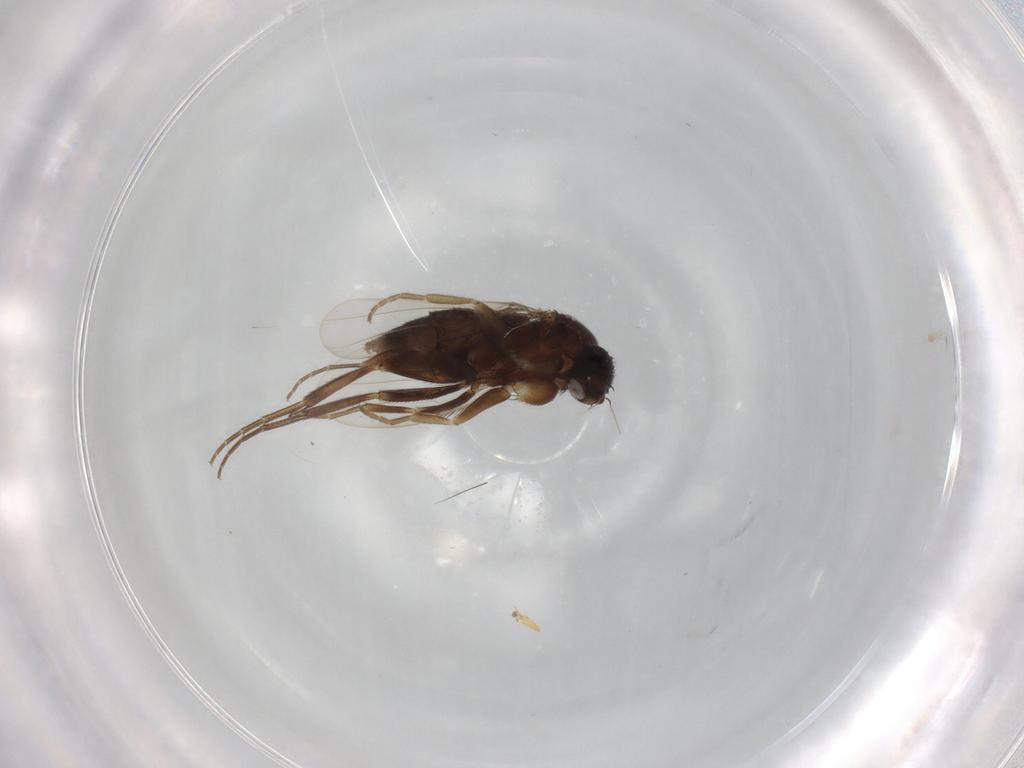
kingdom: Animalia
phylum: Arthropoda
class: Insecta
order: Diptera
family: Phoridae
